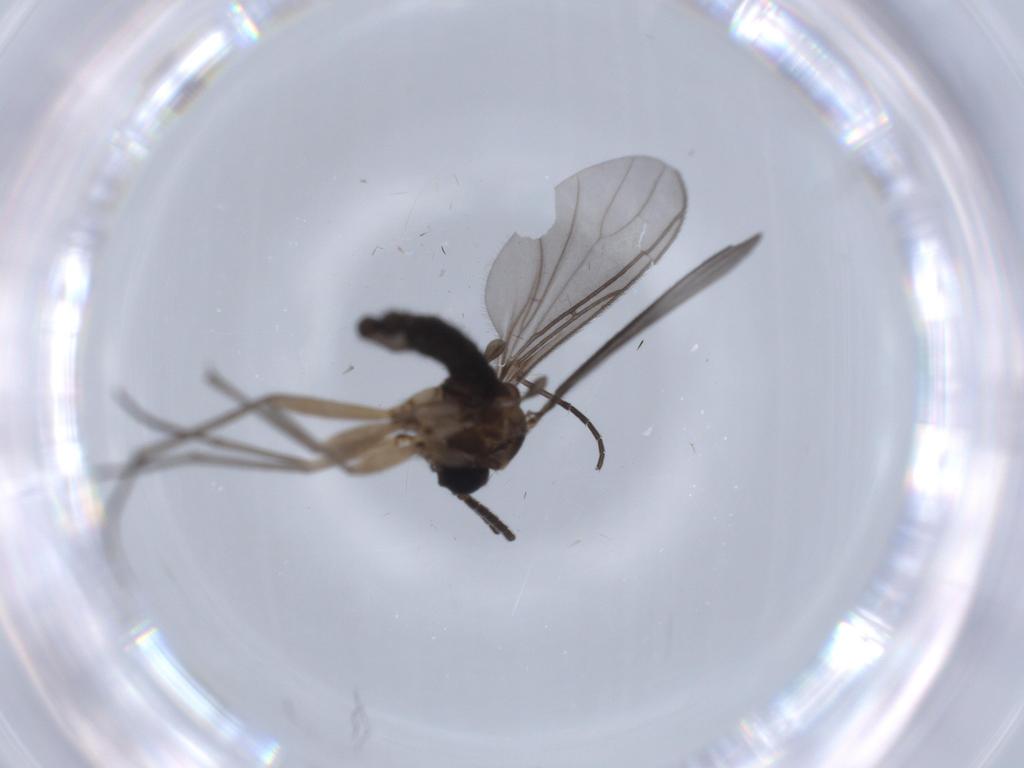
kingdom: Animalia
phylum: Arthropoda
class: Insecta
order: Diptera
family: Sciaridae
